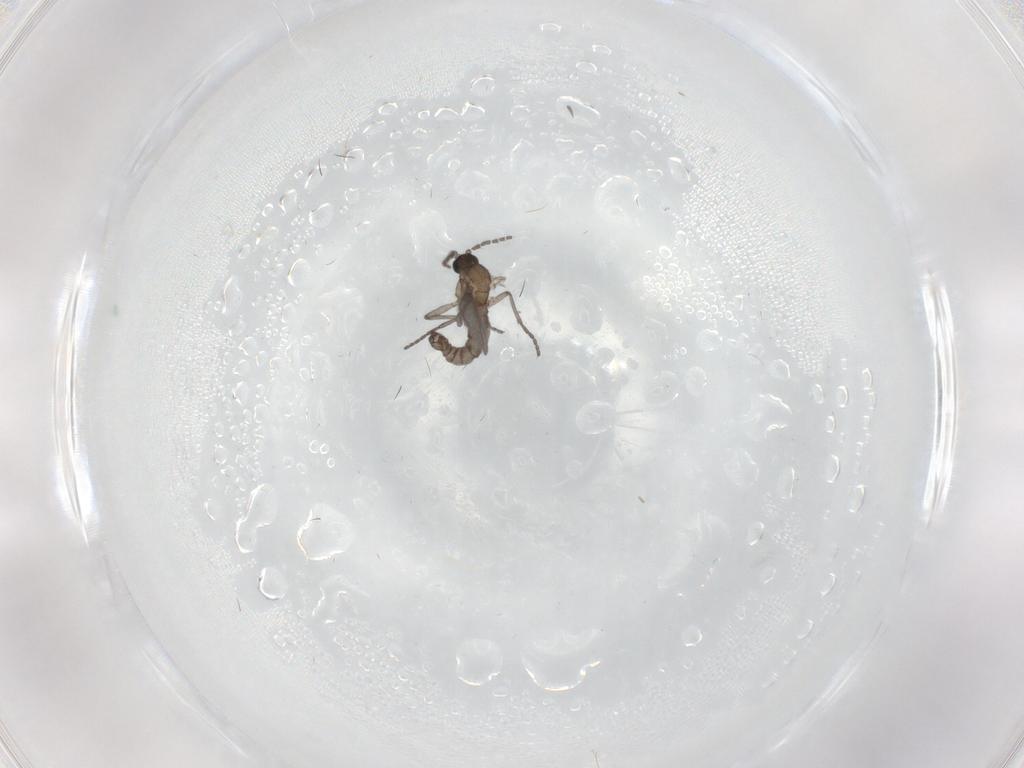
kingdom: Animalia
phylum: Arthropoda
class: Insecta
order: Diptera
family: Sciaridae
